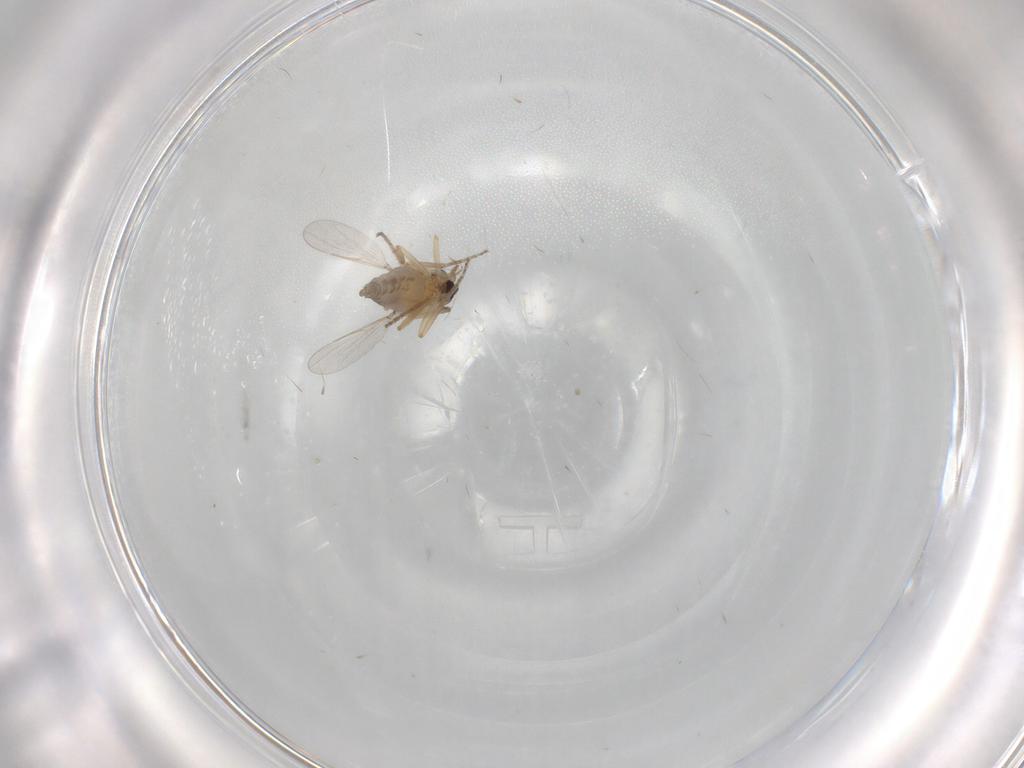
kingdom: Animalia
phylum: Arthropoda
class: Insecta
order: Diptera
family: Ceratopogonidae
